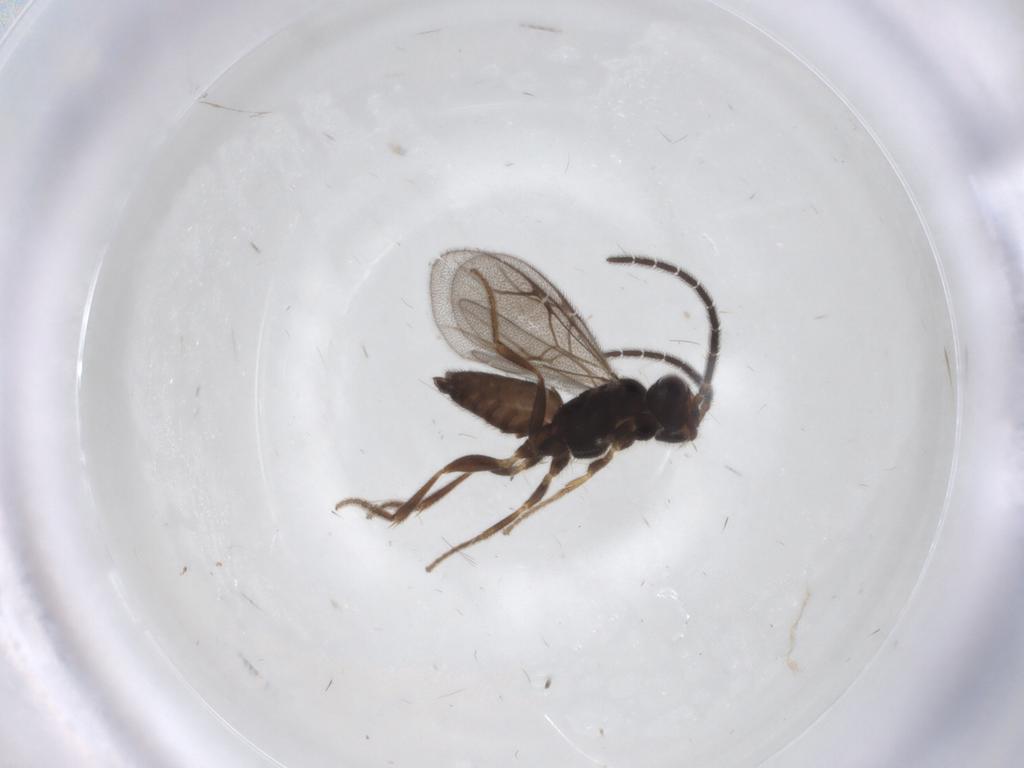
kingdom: Animalia
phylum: Arthropoda
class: Insecta
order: Hymenoptera
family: Dryinidae
